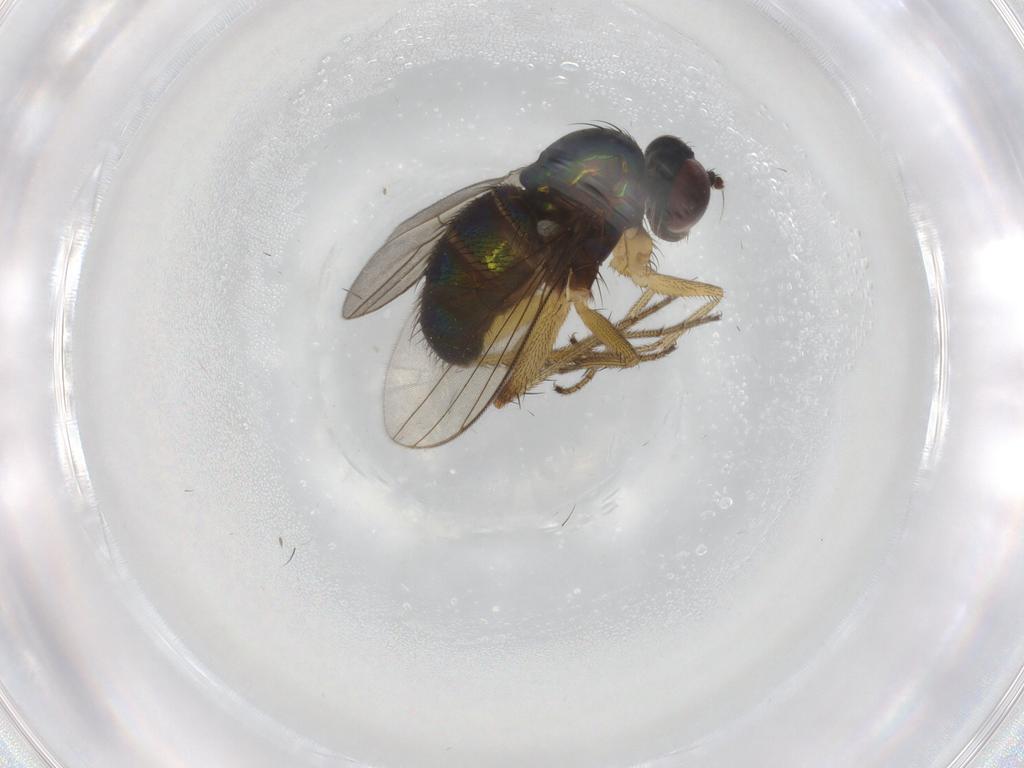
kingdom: Animalia
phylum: Arthropoda
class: Insecta
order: Diptera
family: Dolichopodidae
